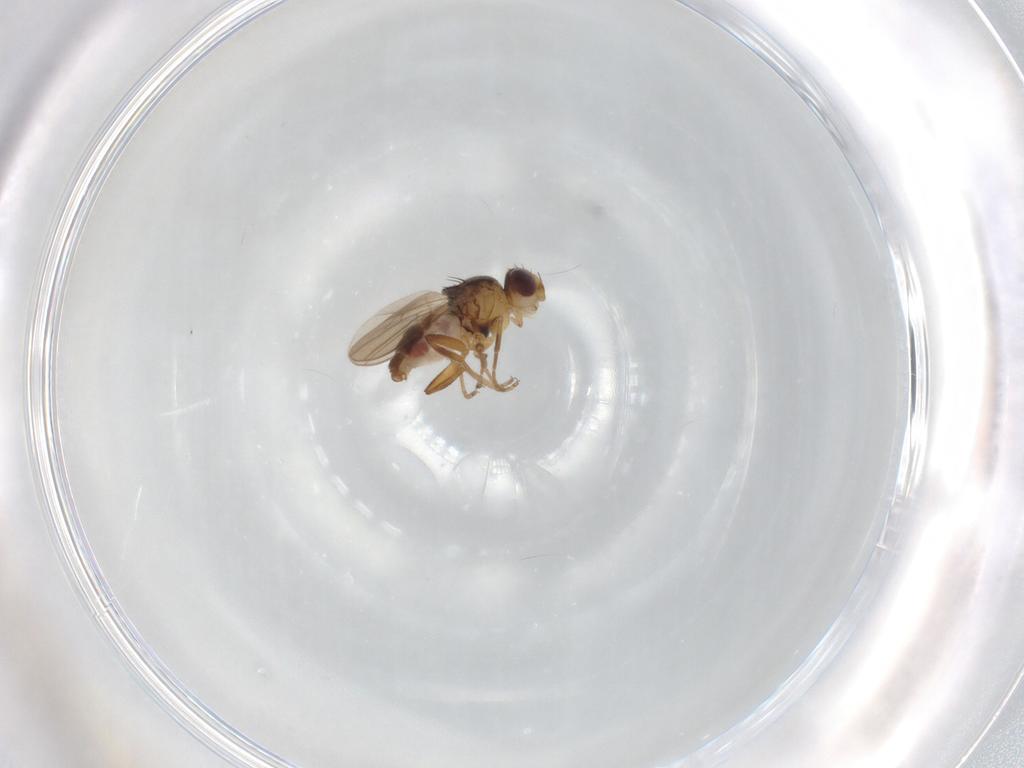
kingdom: Animalia
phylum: Arthropoda
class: Insecta
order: Diptera
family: Chloropidae
